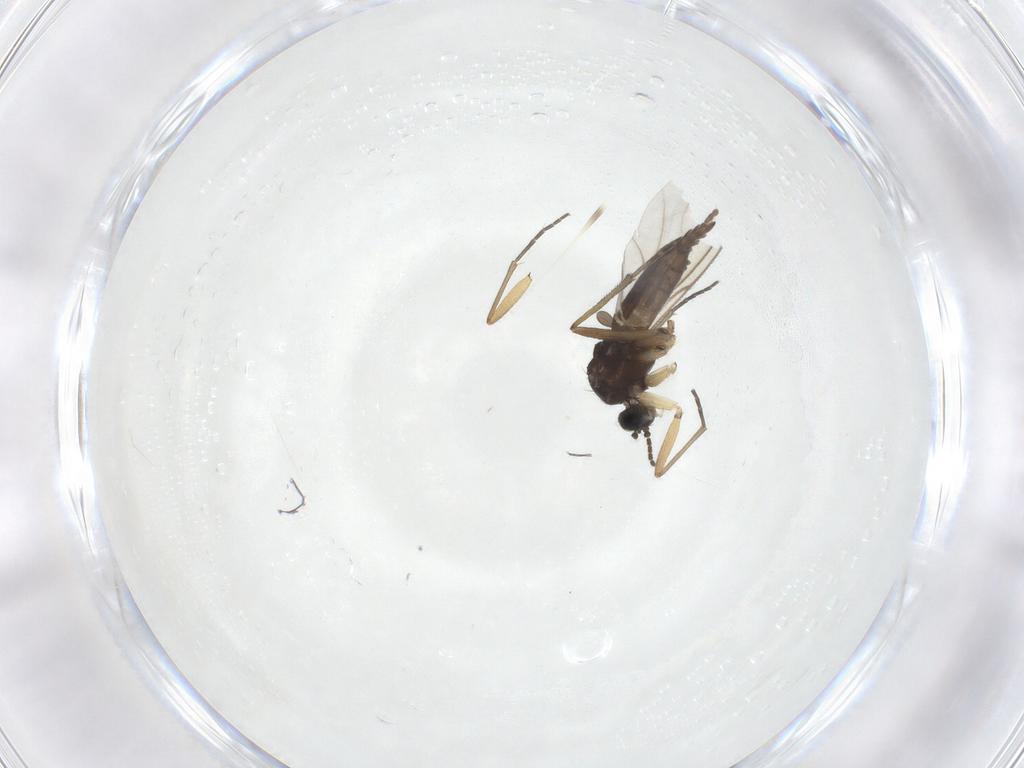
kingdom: Animalia
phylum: Arthropoda
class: Insecta
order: Diptera
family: Sciaridae
